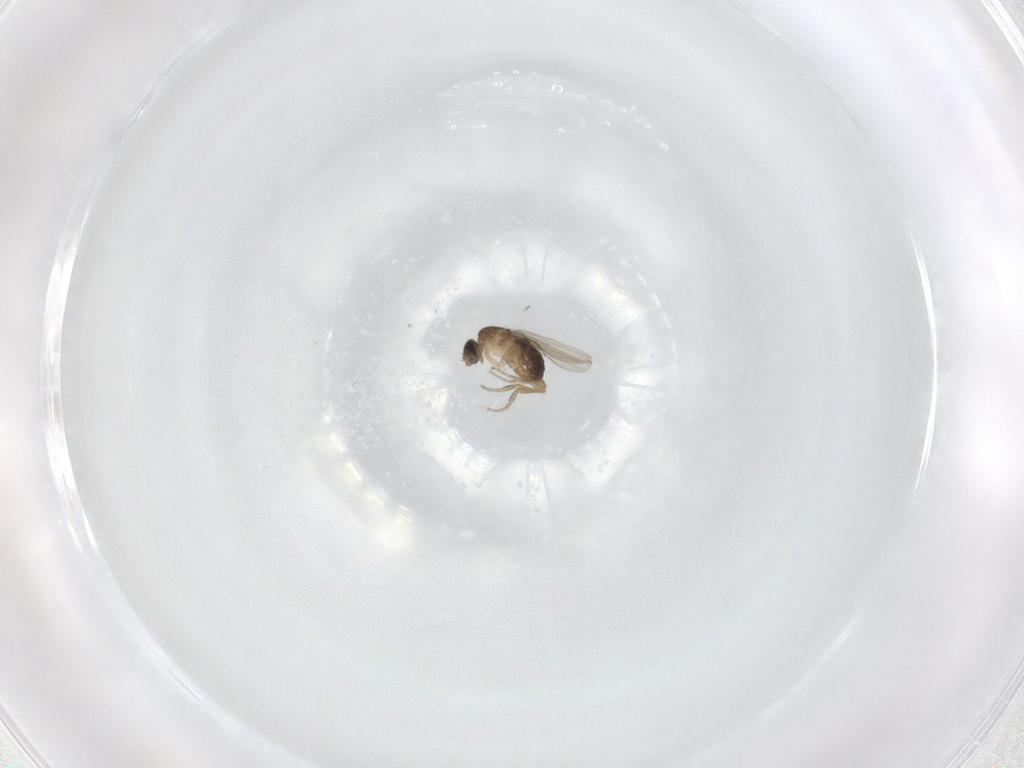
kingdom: Animalia
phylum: Arthropoda
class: Insecta
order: Diptera
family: Phoridae
